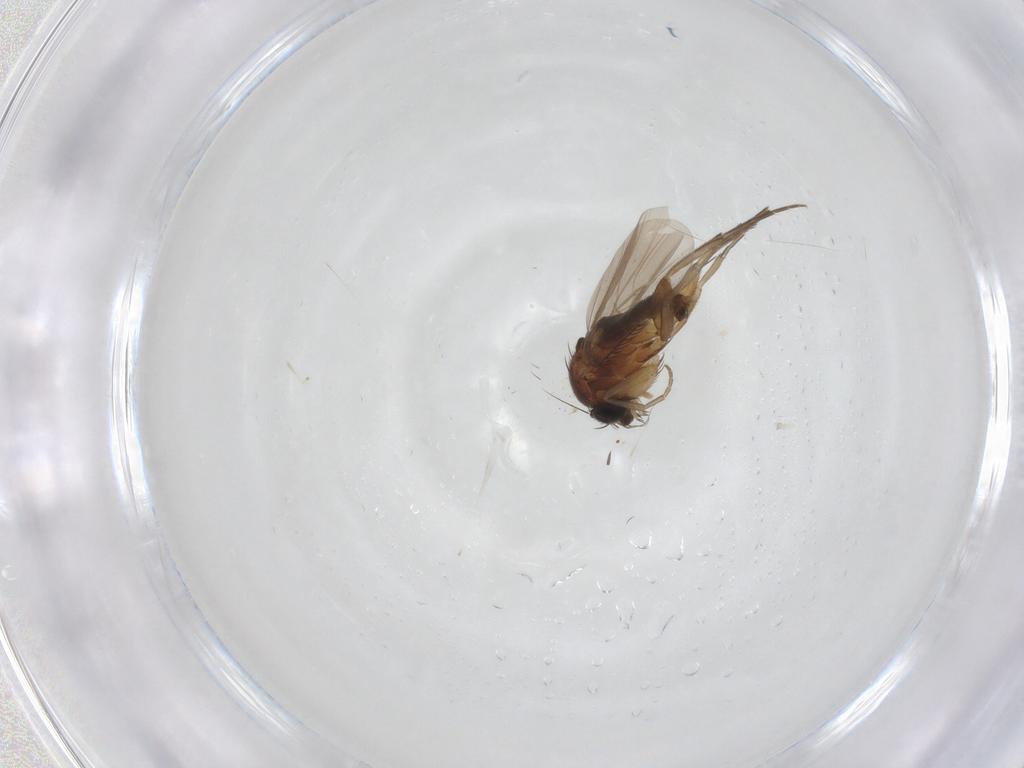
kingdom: Animalia
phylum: Arthropoda
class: Insecta
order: Diptera
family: Phoridae
